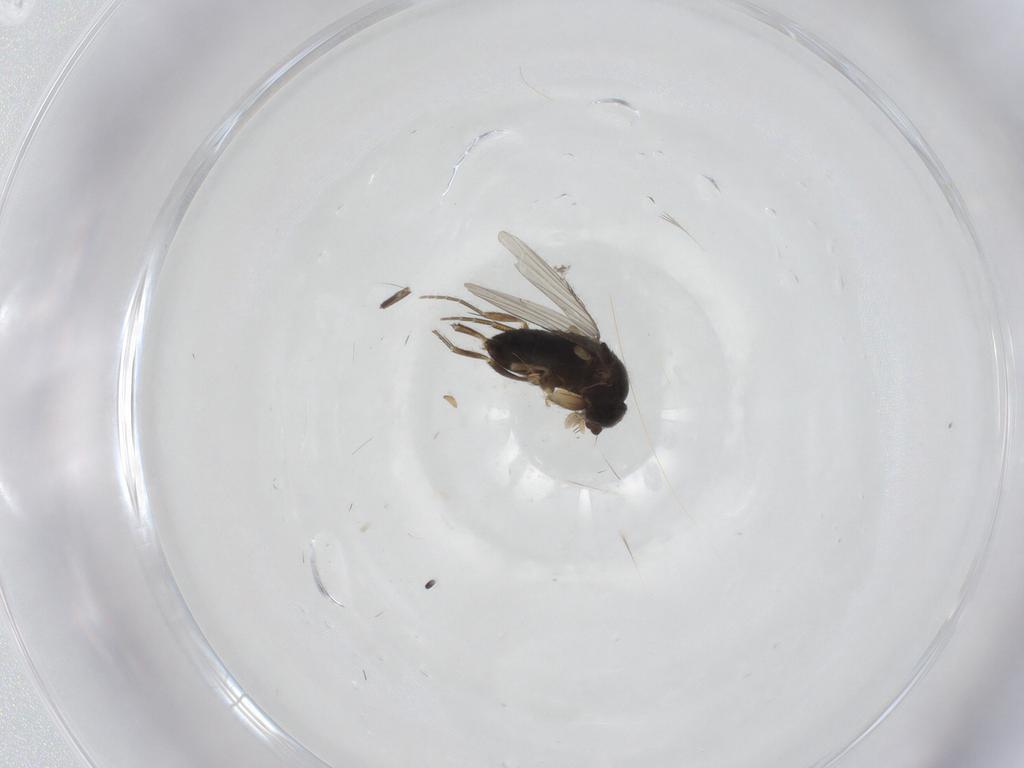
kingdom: Animalia
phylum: Arthropoda
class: Insecta
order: Diptera
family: Phoridae
